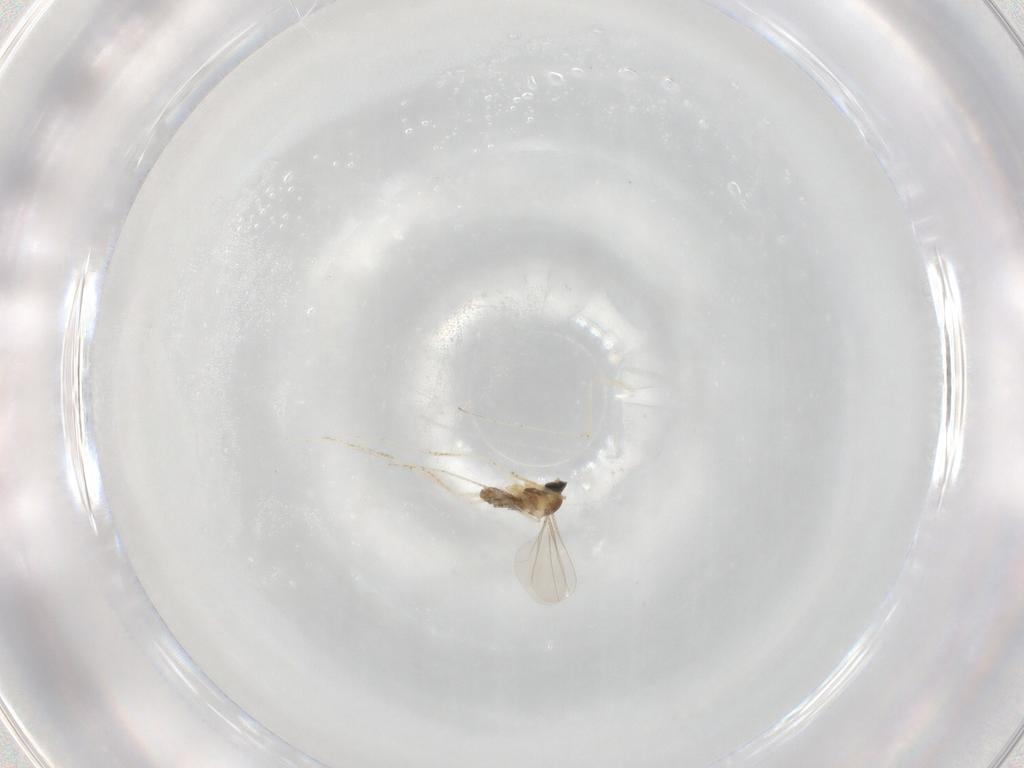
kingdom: Animalia
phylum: Arthropoda
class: Insecta
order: Diptera
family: Cecidomyiidae
